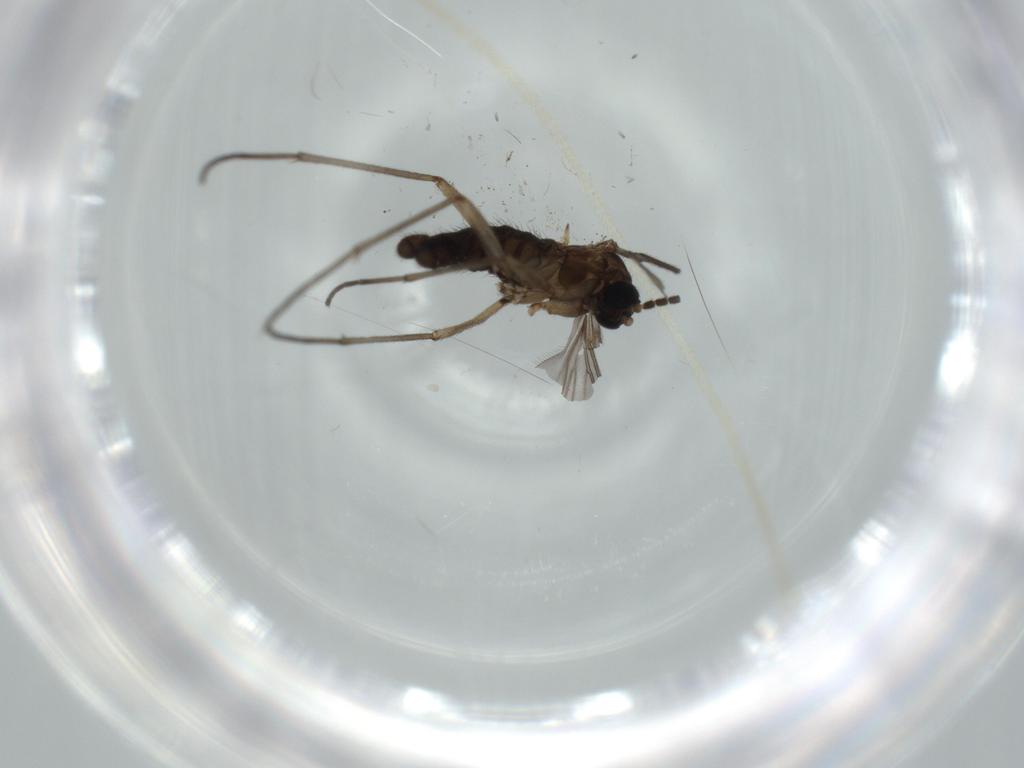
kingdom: Animalia
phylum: Arthropoda
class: Insecta
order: Diptera
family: Sciaridae
